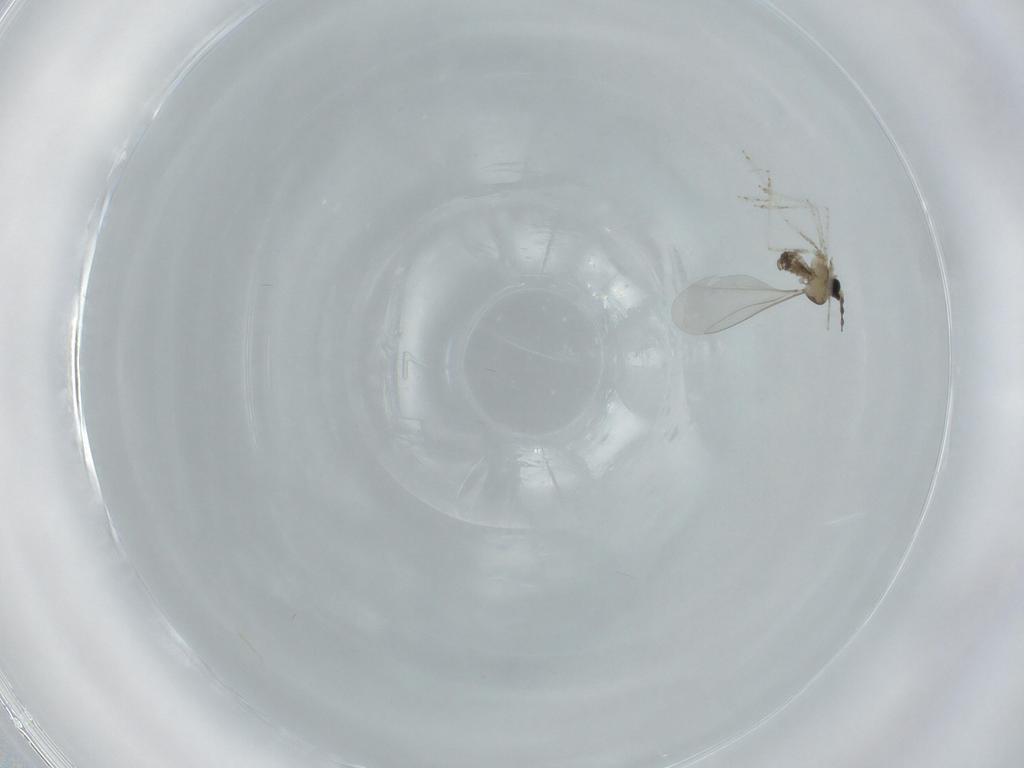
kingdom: Animalia
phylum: Arthropoda
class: Insecta
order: Diptera
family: Cecidomyiidae
